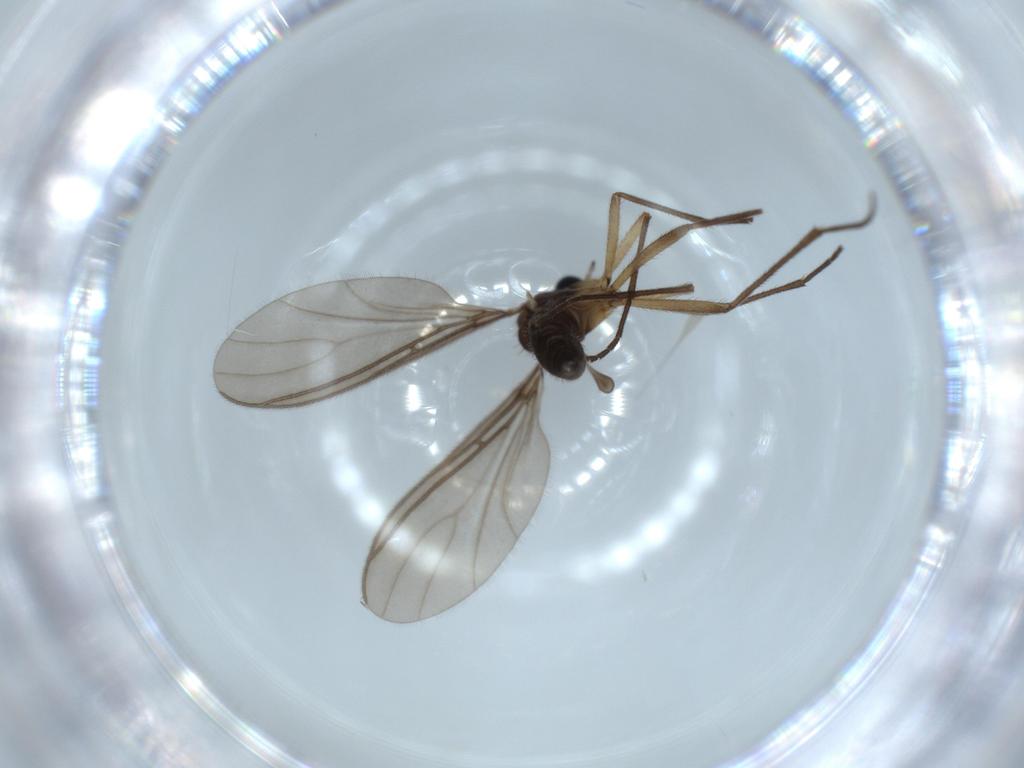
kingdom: Animalia
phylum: Arthropoda
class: Insecta
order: Diptera
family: Sciaridae
